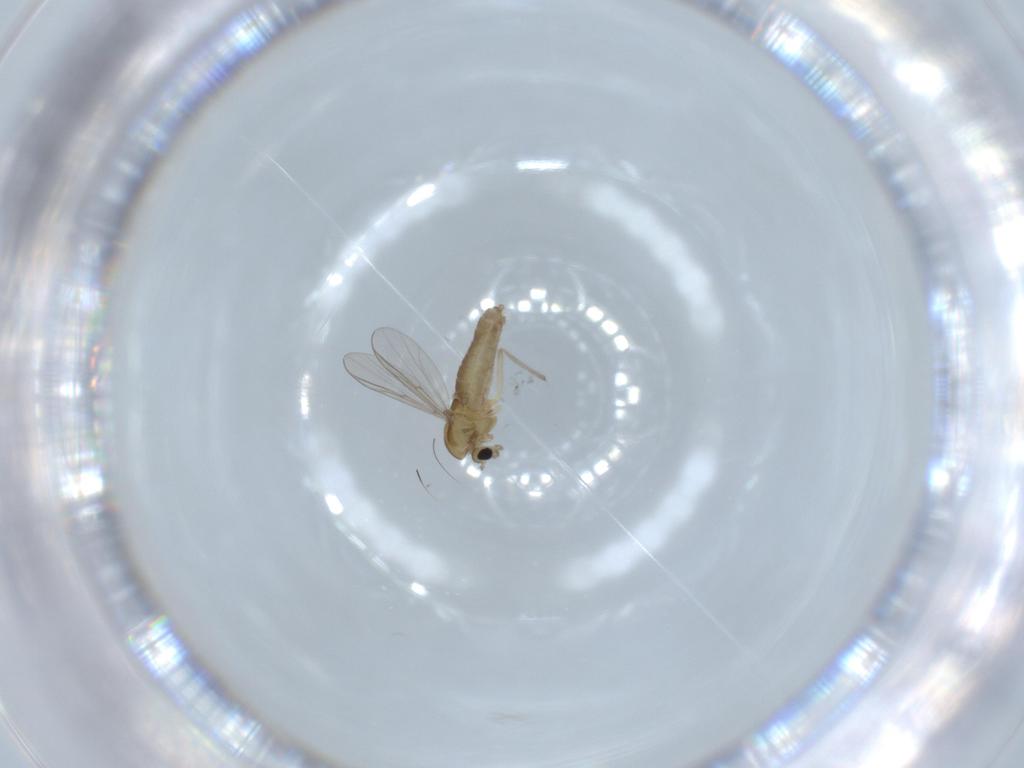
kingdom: Animalia
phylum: Arthropoda
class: Insecta
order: Diptera
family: Chironomidae
